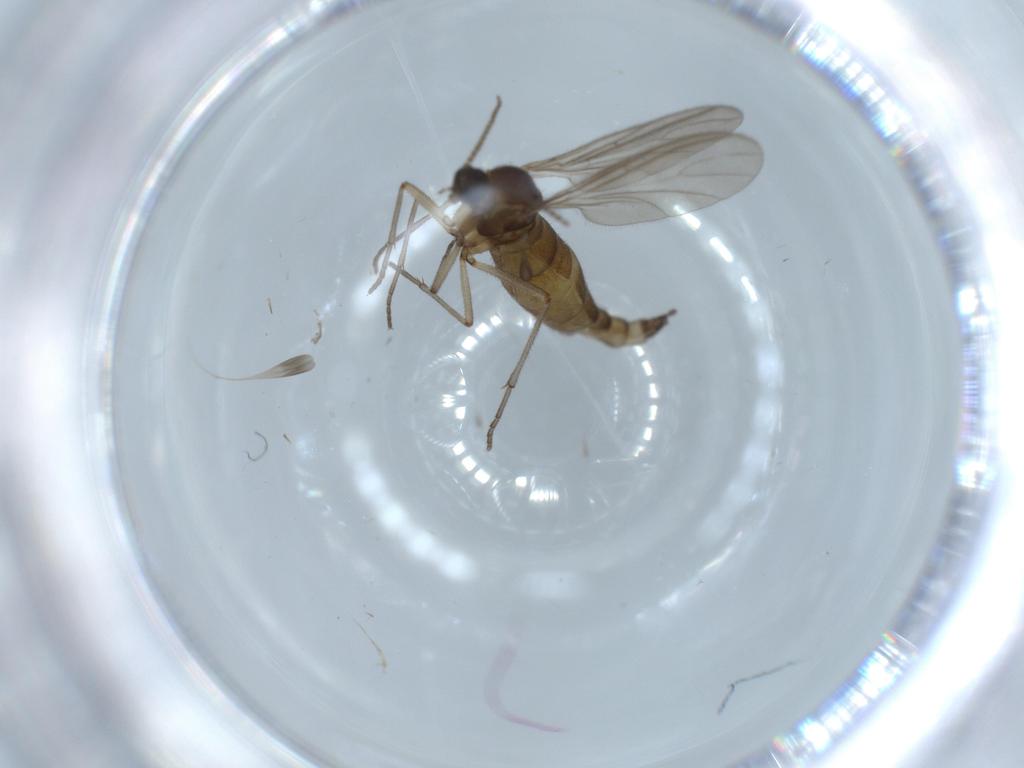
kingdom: Animalia
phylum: Arthropoda
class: Insecta
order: Diptera
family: Sciaridae
